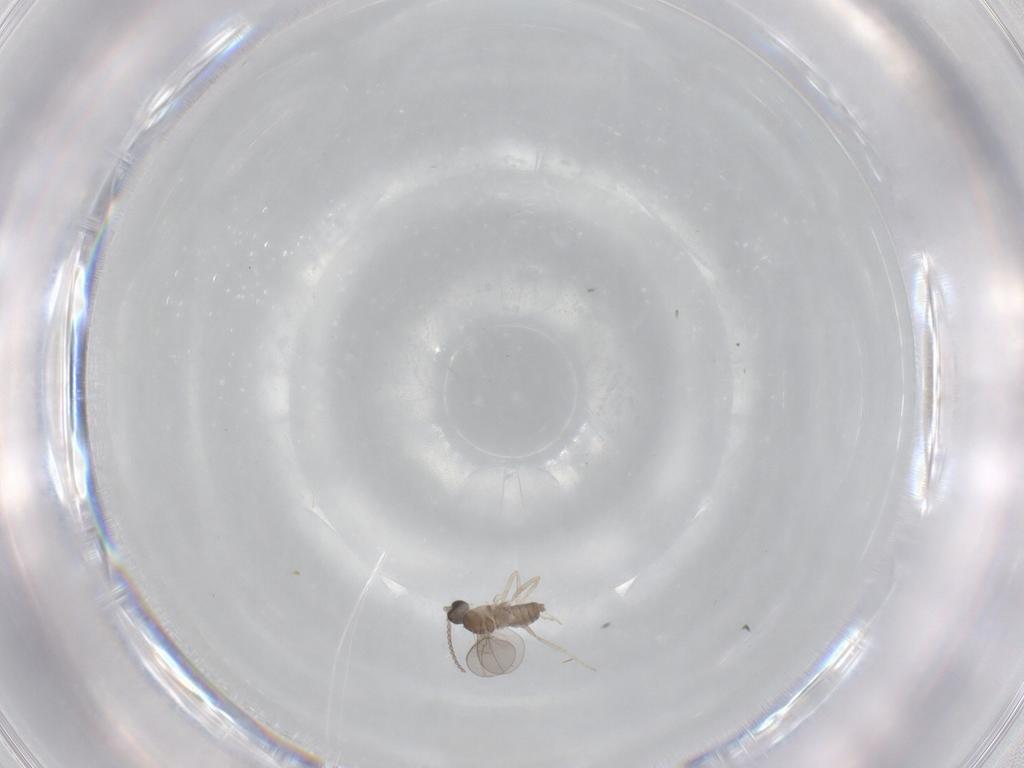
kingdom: Animalia
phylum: Arthropoda
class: Insecta
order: Diptera
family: Cecidomyiidae
